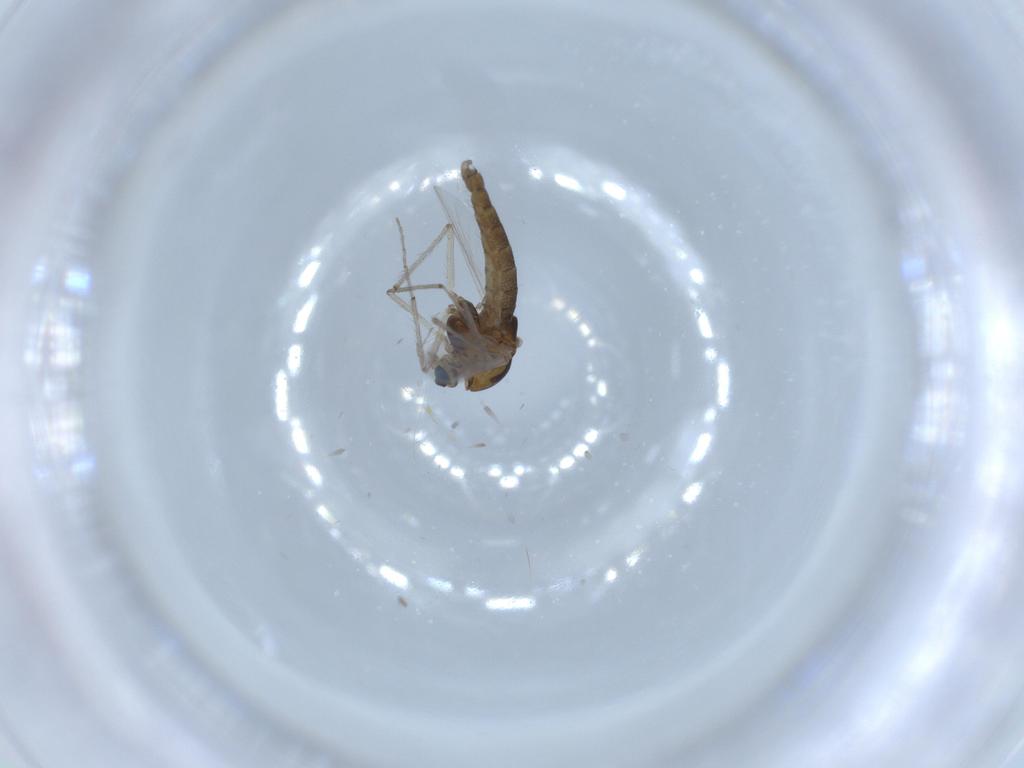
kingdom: Animalia
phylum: Arthropoda
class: Insecta
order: Diptera
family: Chironomidae
